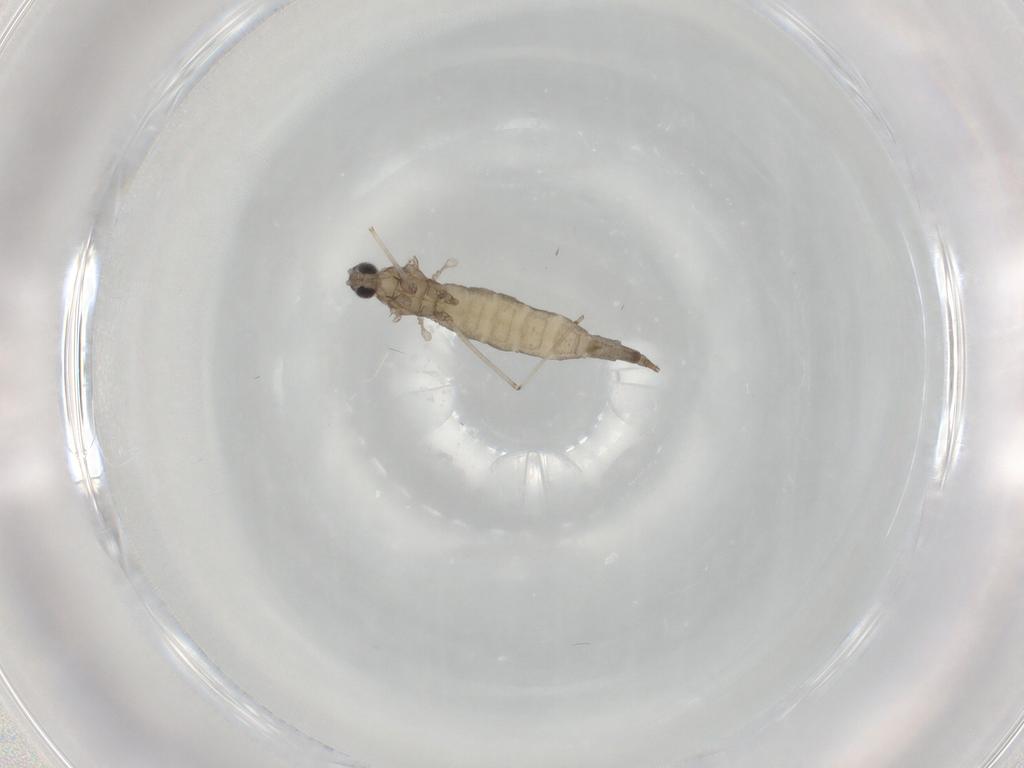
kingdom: Animalia
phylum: Arthropoda
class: Insecta
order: Diptera
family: Cecidomyiidae
